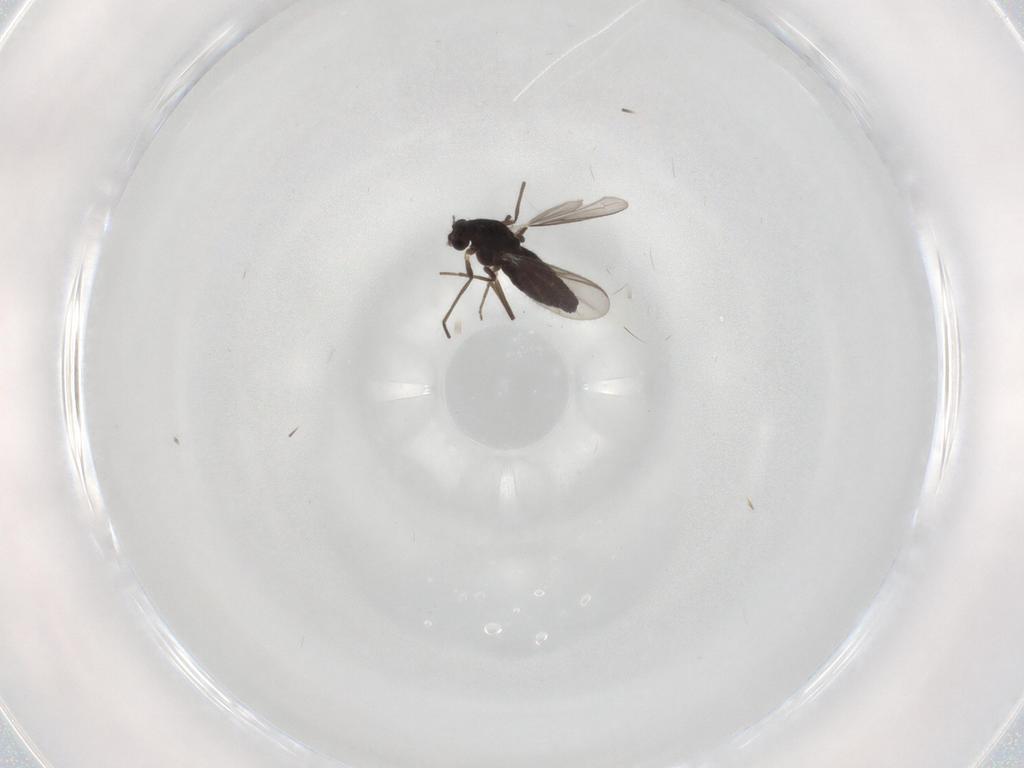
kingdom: Animalia
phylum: Arthropoda
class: Insecta
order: Diptera
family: Chironomidae
